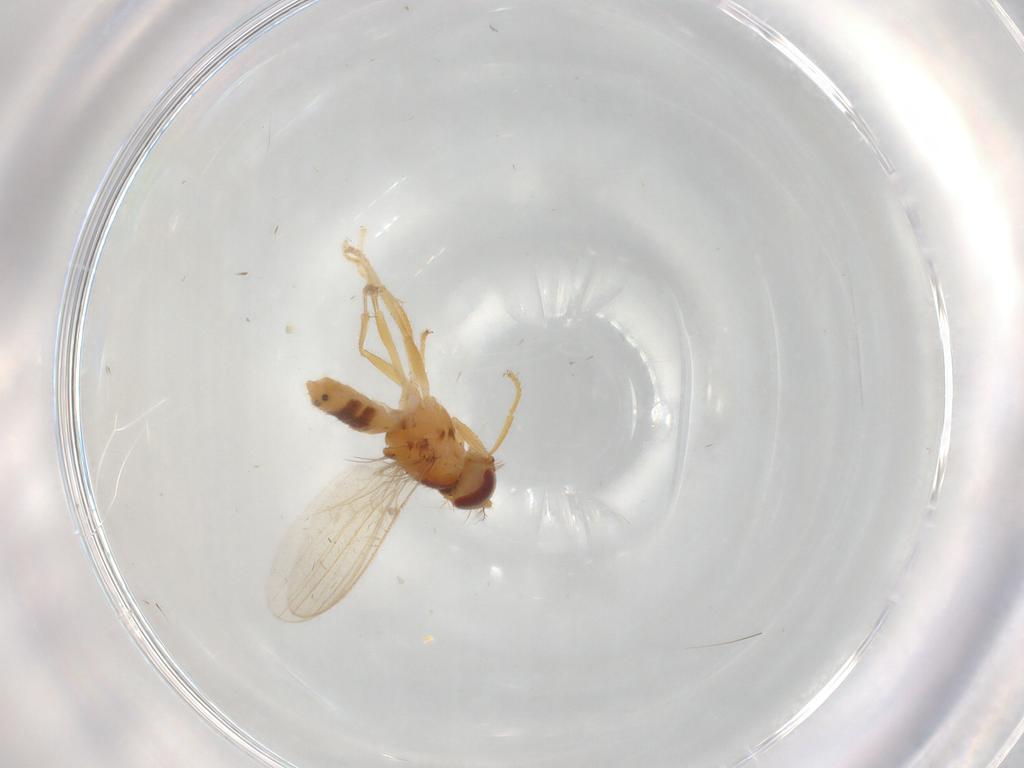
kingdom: Animalia
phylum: Arthropoda
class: Insecta
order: Diptera
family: Periscelididae
